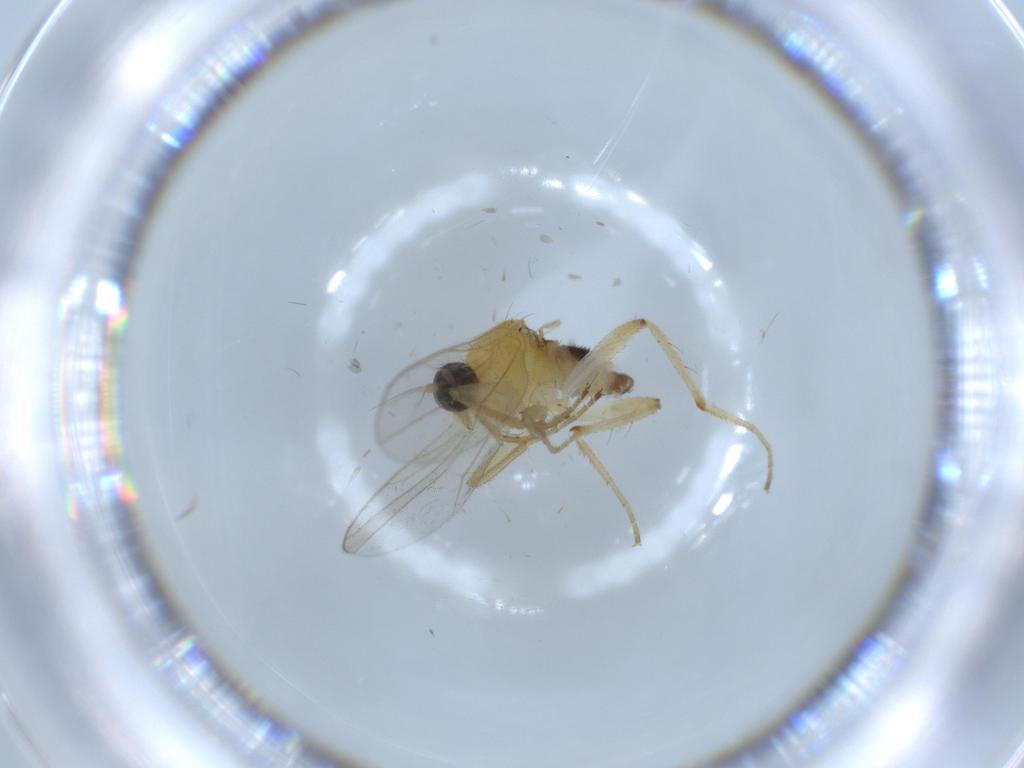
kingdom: Animalia
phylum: Arthropoda
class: Insecta
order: Diptera
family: Hybotidae
